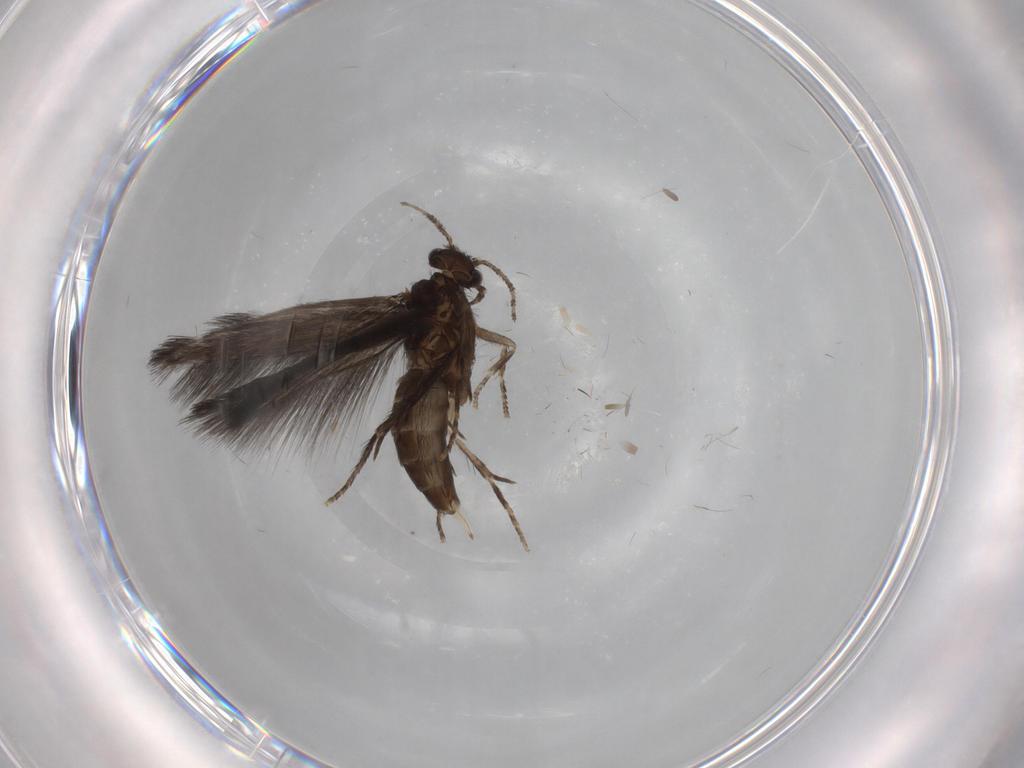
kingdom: Animalia
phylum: Arthropoda
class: Insecta
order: Trichoptera
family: Hydroptilidae
